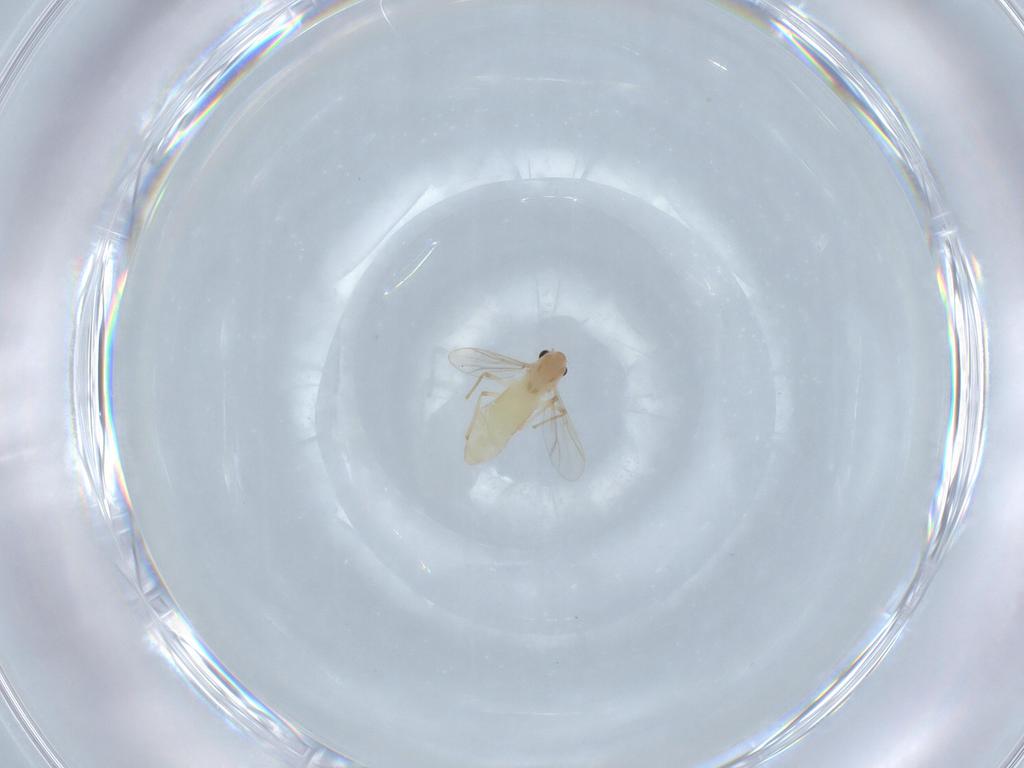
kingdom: Animalia
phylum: Arthropoda
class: Insecta
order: Diptera
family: Chironomidae
